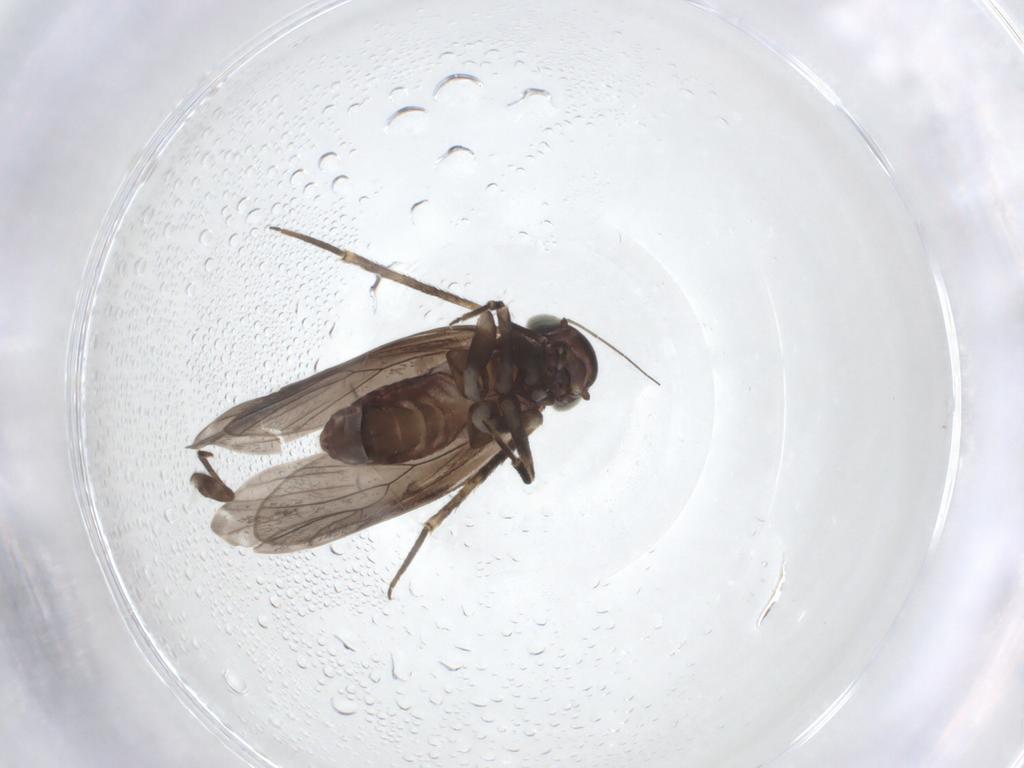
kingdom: Animalia
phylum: Arthropoda
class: Insecta
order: Psocodea
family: Amphientomidae
